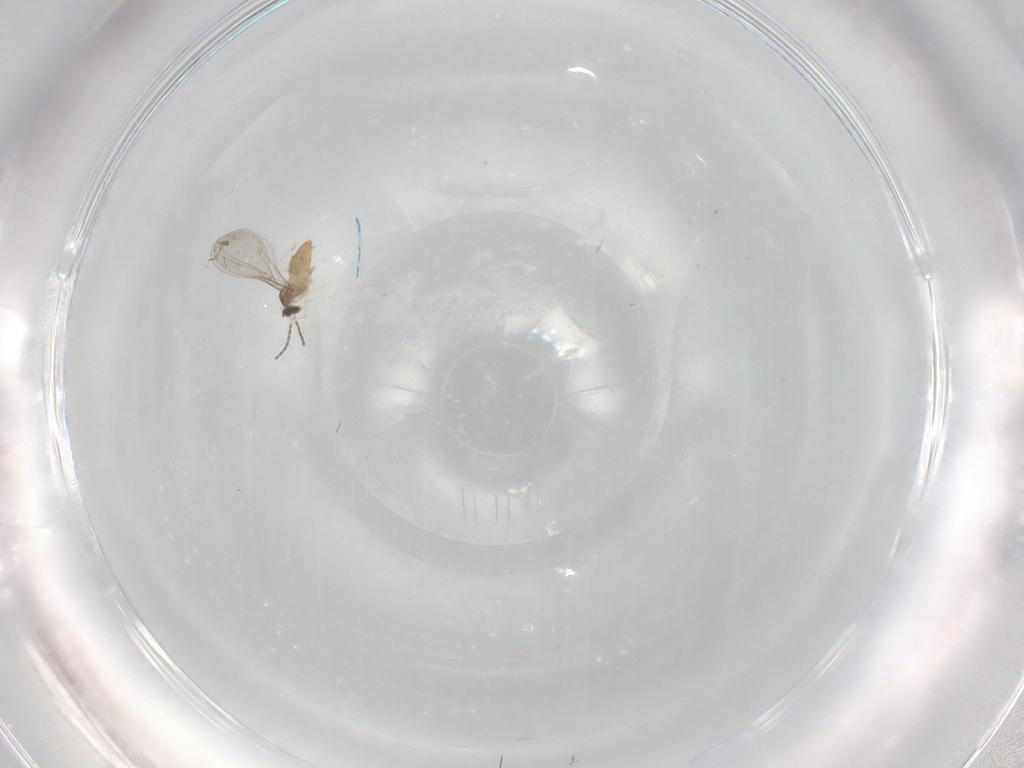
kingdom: Animalia
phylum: Arthropoda
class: Insecta
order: Diptera
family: Cecidomyiidae
